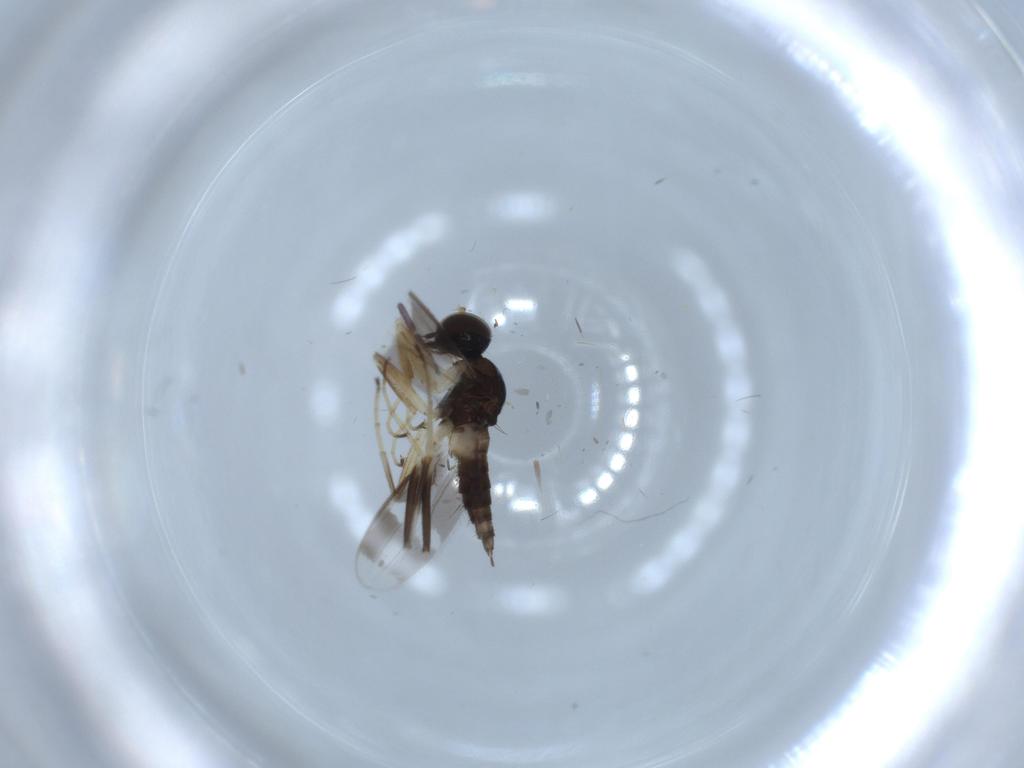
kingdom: Animalia
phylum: Arthropoda
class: Insecta
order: Diptera
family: Hybotidae
